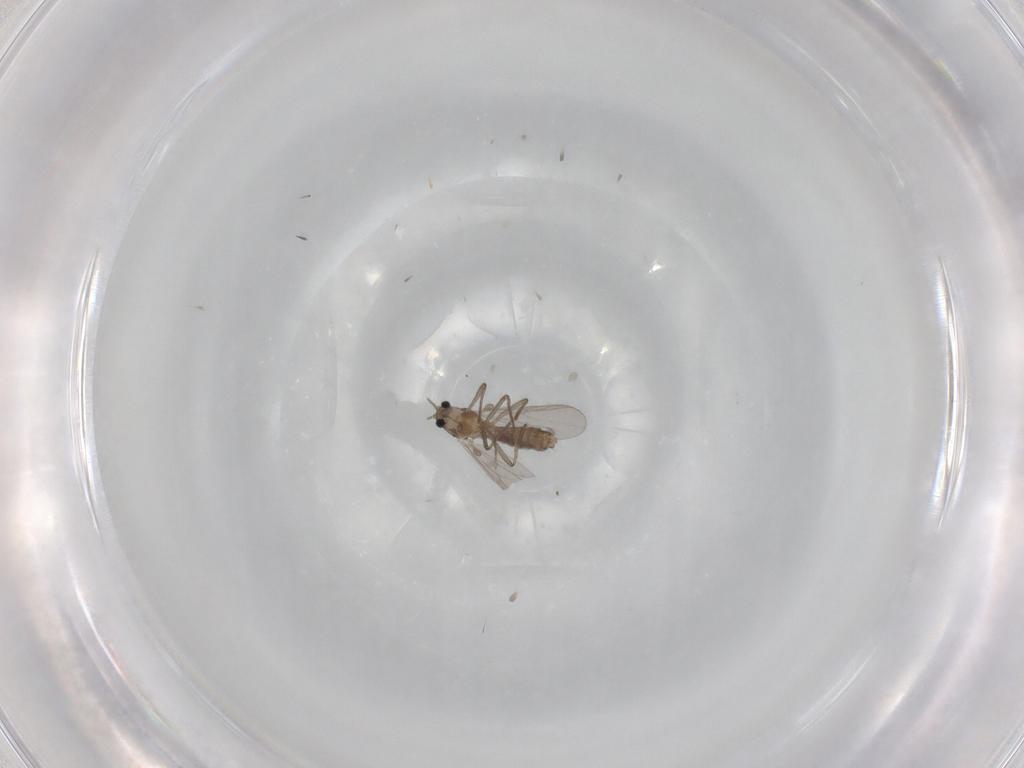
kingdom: Animalia
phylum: Arthropoda
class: Insecta
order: Diptera
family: Chironomidae
